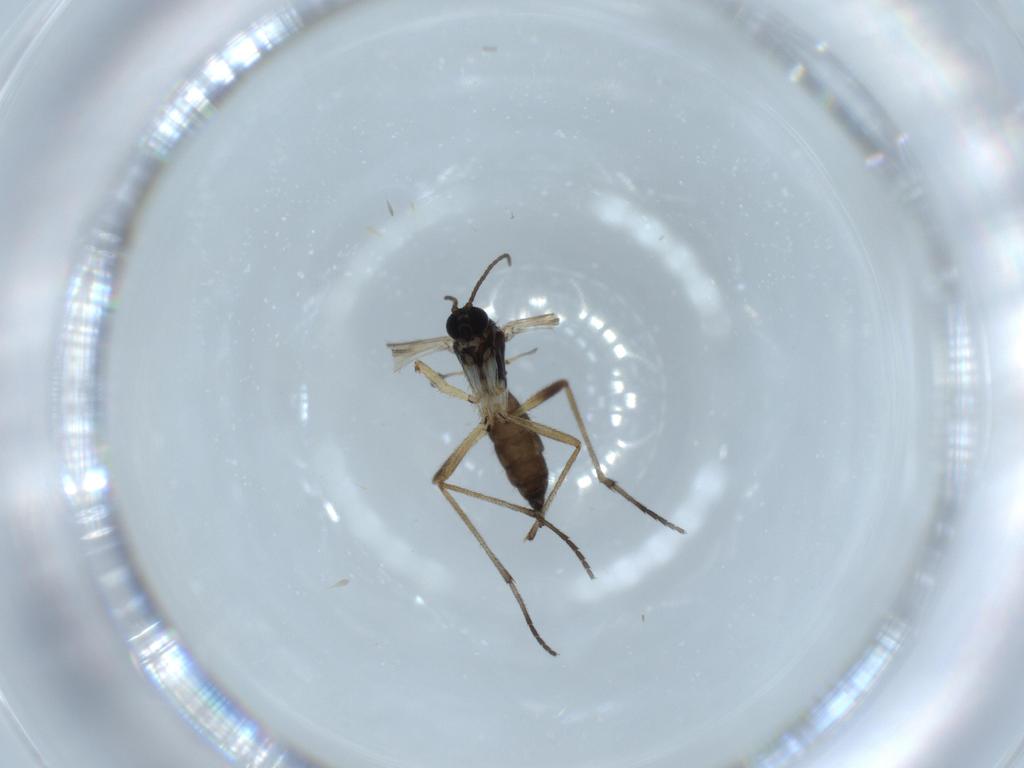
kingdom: Animalia
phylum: Arthropoda
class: Insecta
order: Diptera
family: Sciaridae
